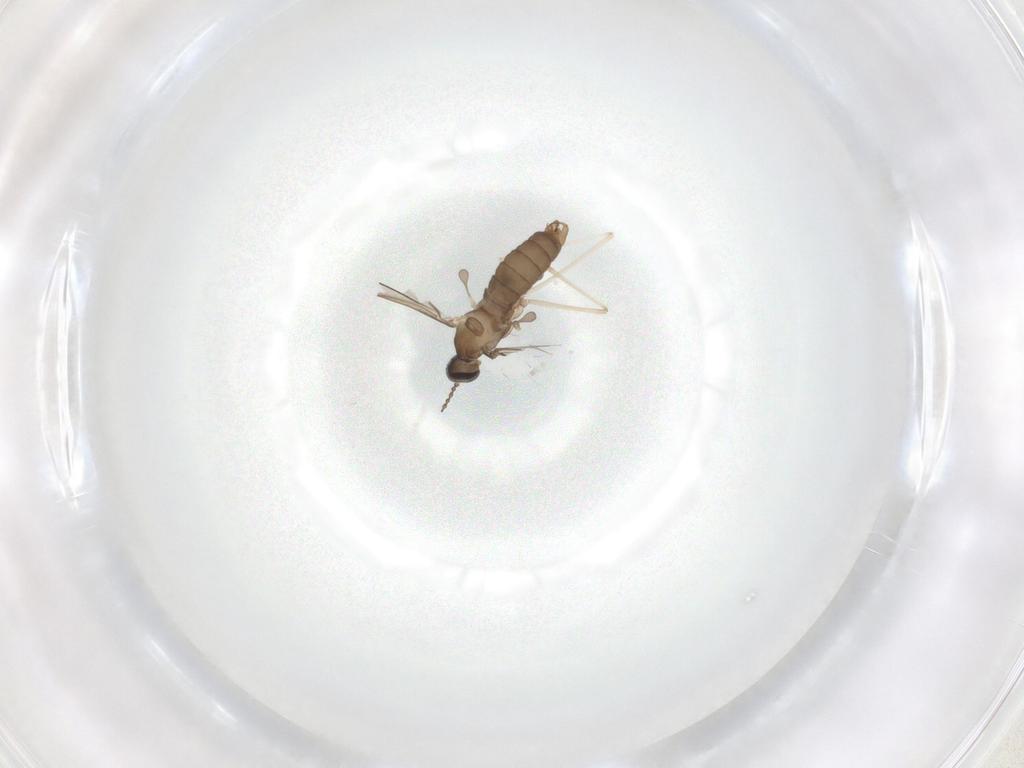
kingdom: Animalia
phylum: Arthropoda
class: Insecta
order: Diptera
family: Cecidomyiidae
